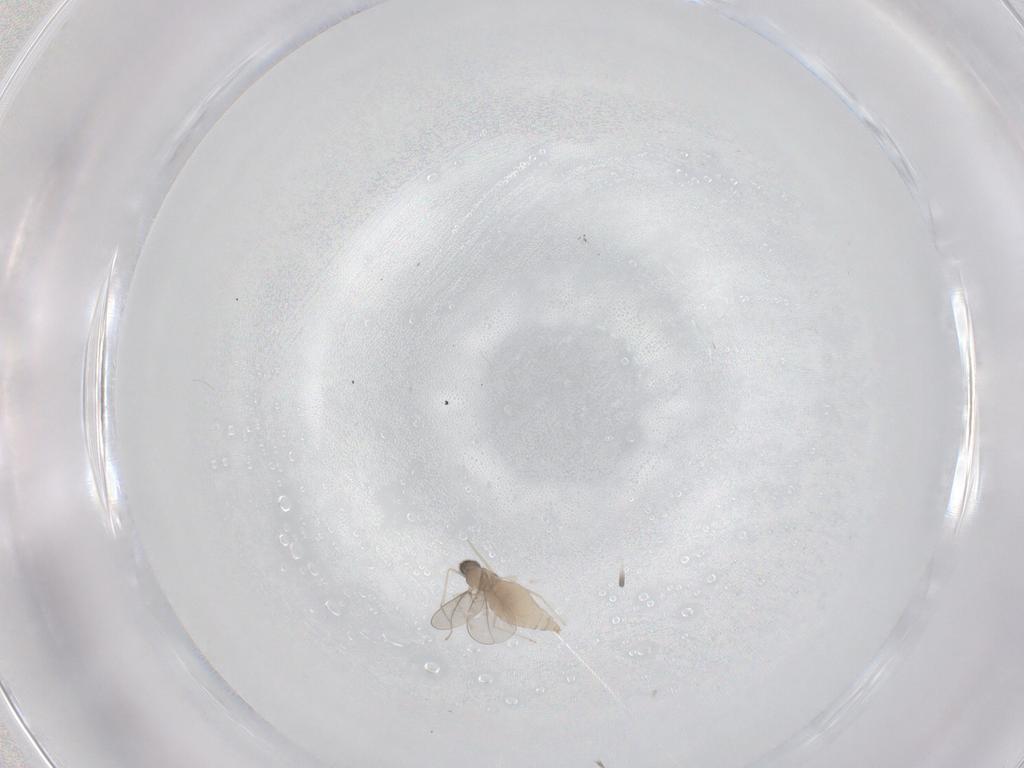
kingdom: Animalia
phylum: Arthropoda
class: Insecta
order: Diptera
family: Cecidomyiidae
